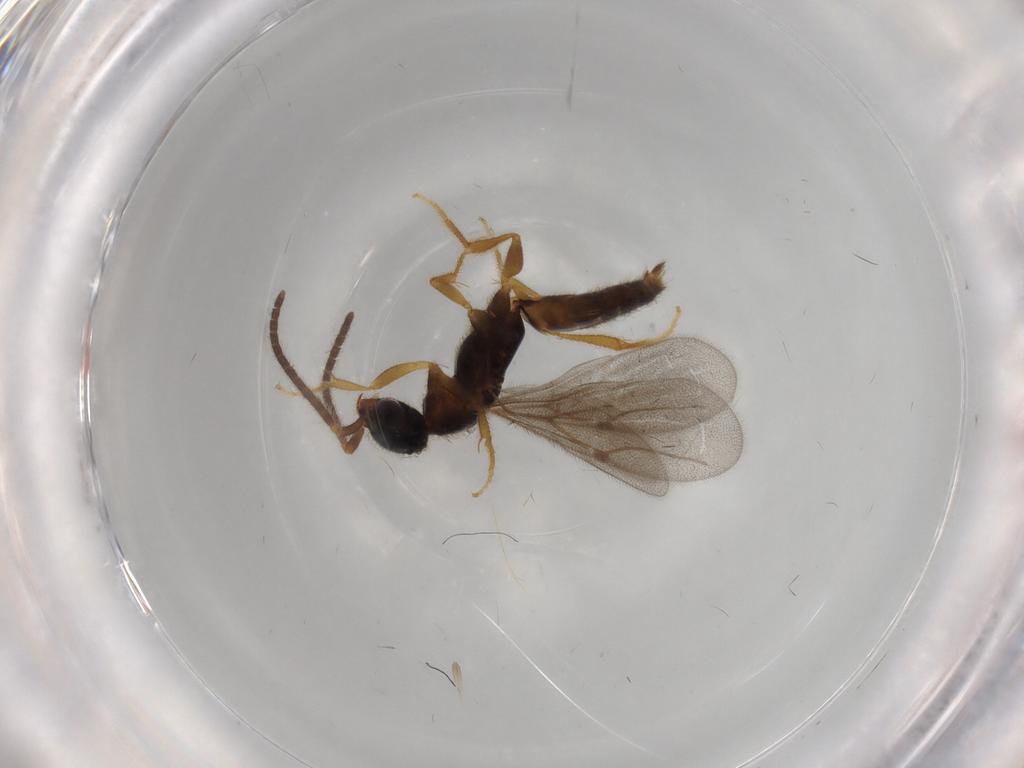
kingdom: Animalia
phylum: Arthropoda
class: Insecta
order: Hymenoptera
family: Bethylidae
